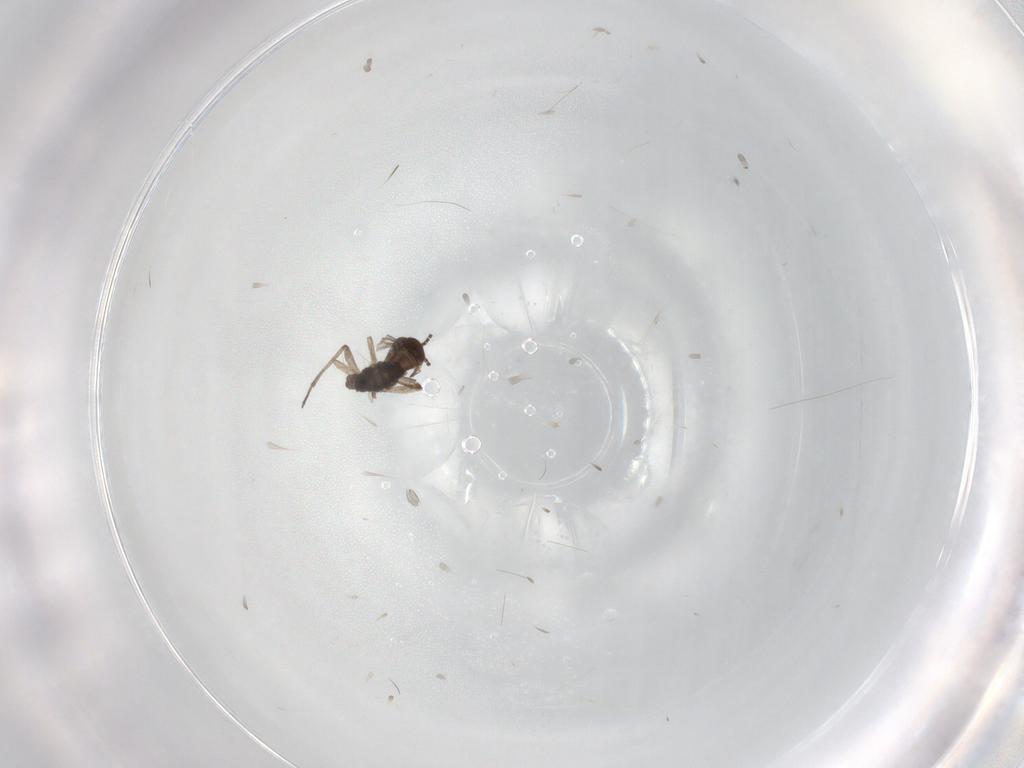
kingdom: Animalia
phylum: Arthropoda
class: Insecta
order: Diptera
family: Sciaridae
